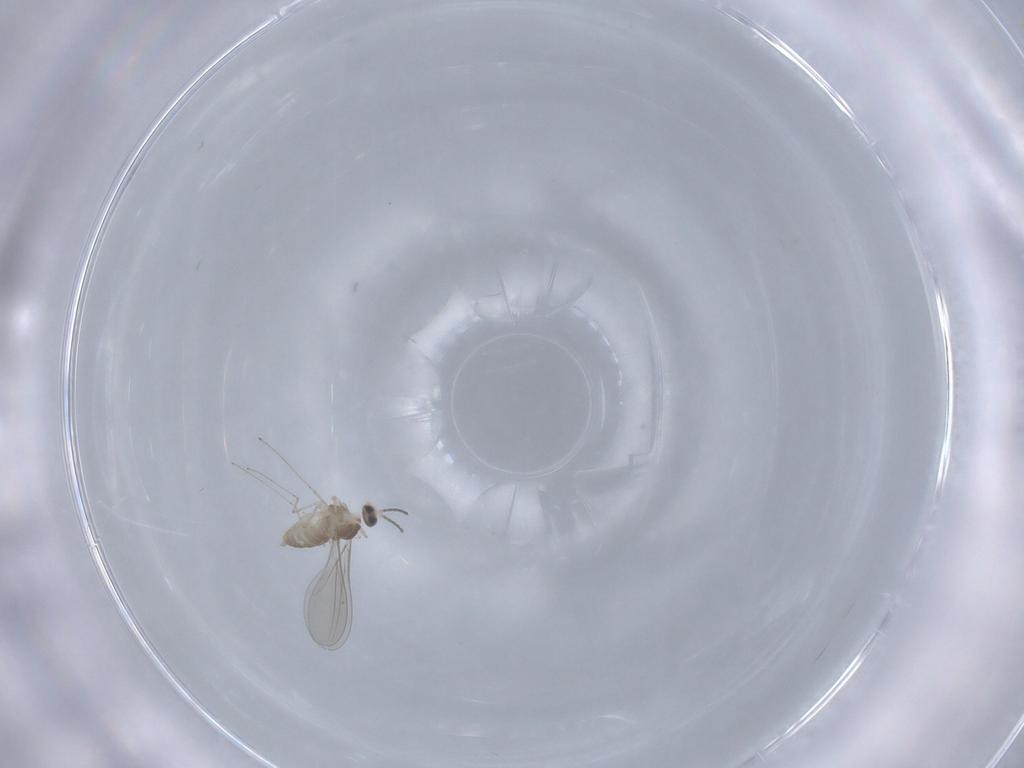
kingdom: Animalia
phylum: Arthropoda
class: Insecta
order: Diptera
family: Cecidomyiidae
